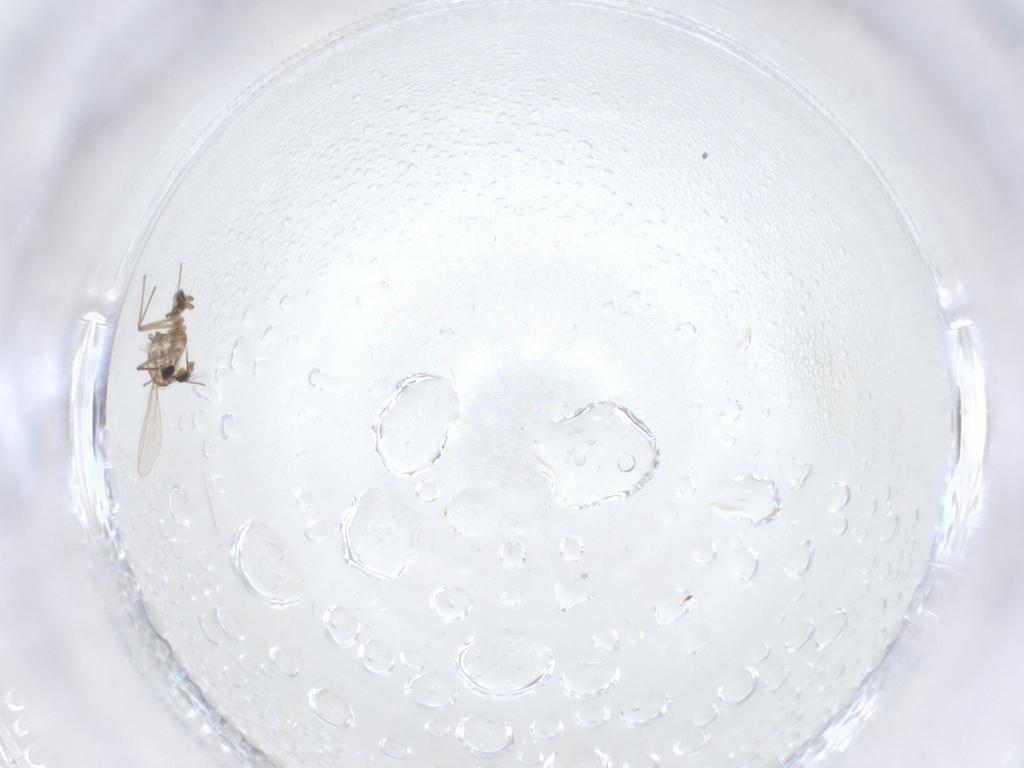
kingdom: Animalia
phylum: Arthropoda
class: Insecta
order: Diptera
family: Chironomidae
